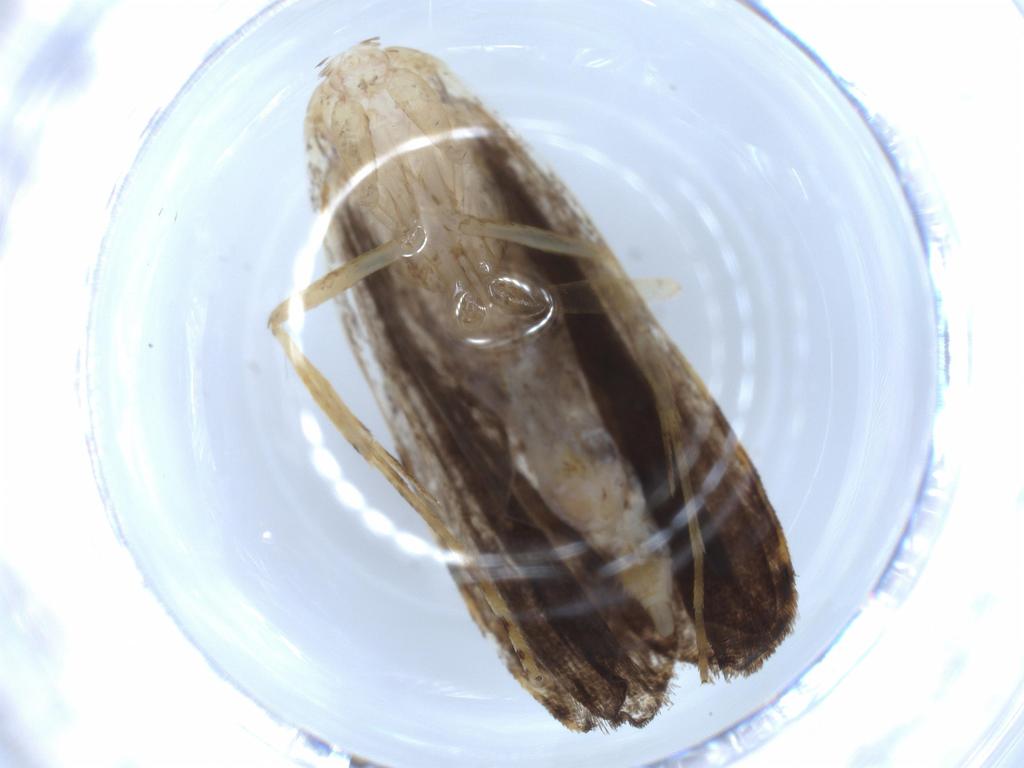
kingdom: Animalia
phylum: Arthropoda
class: Insecta
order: Lepidoptera
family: Autostichidae
